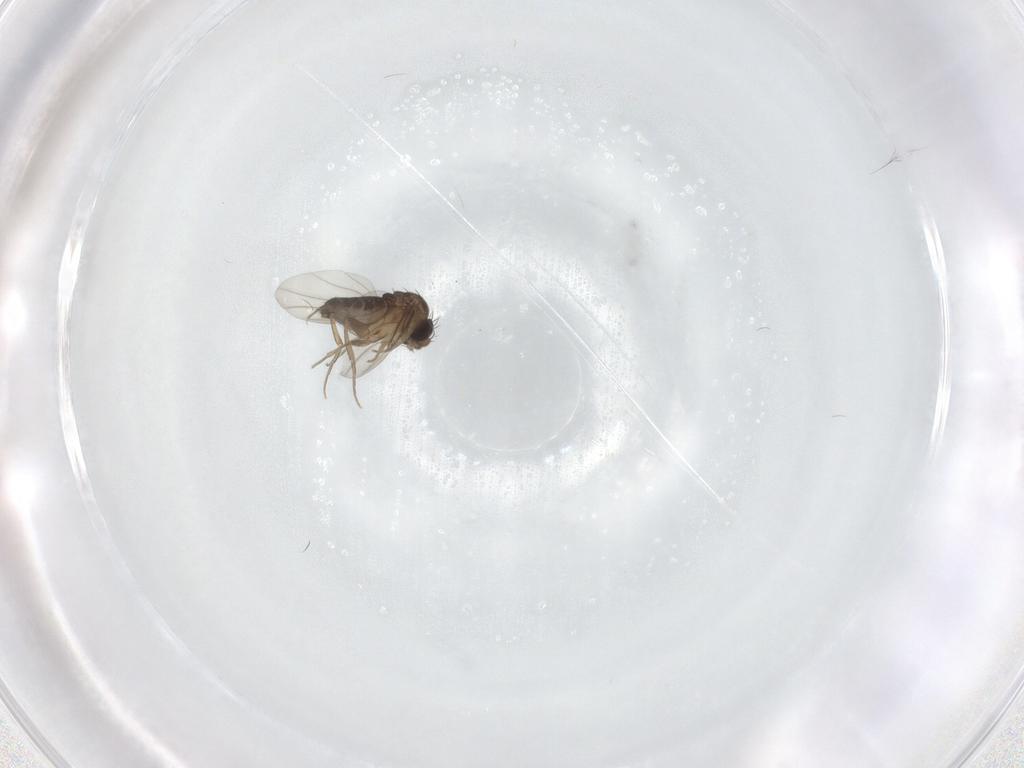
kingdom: Animalia
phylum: Arthropoda
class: Insecta
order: Diptera
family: Phoridae
